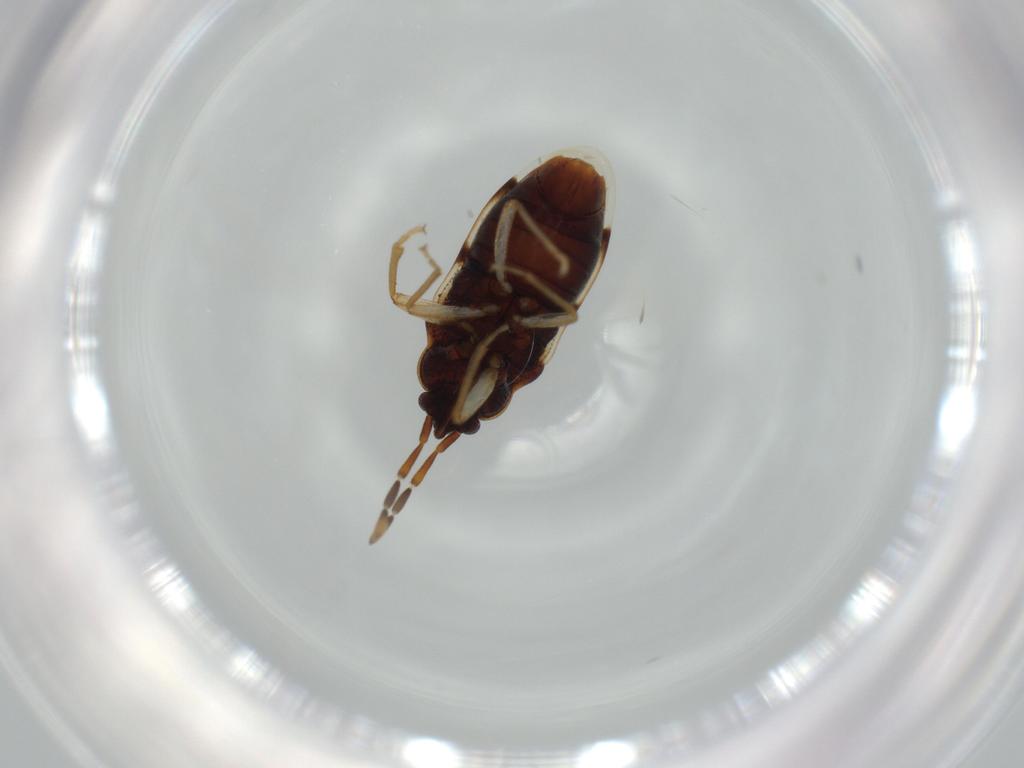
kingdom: Animalia
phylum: Arthropoda
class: Insecta
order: Hemiptera
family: Rhyparochromidae
